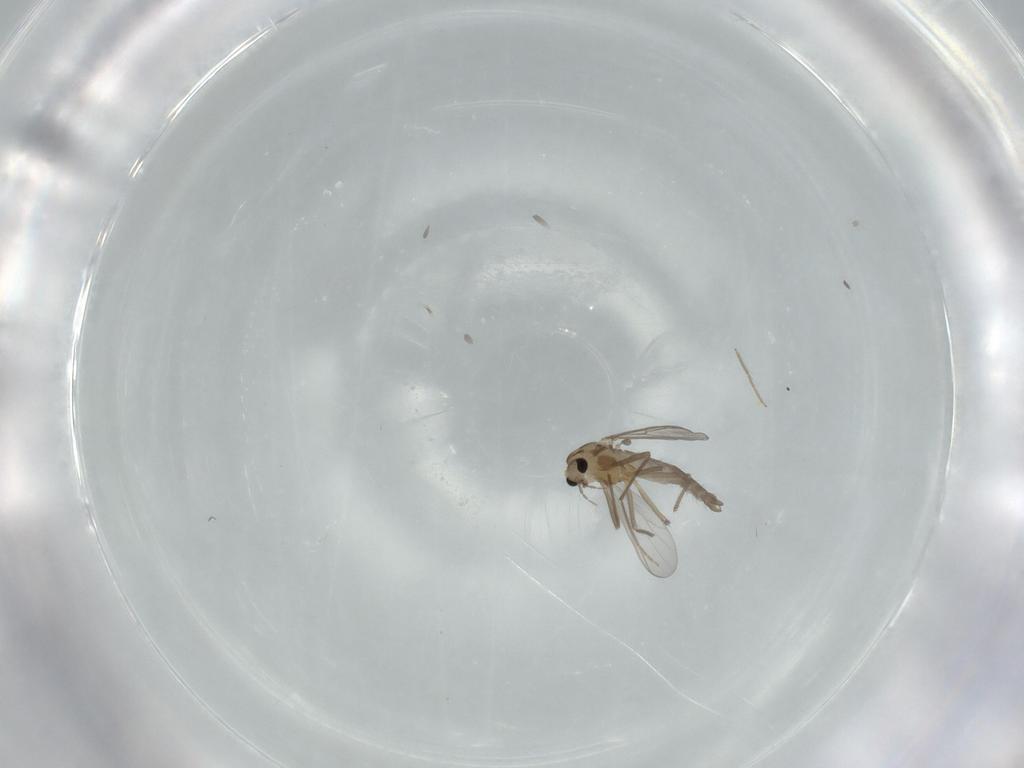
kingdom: Animalia
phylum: Arthropoda
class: Insecta
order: Diptera
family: Chironomidae
